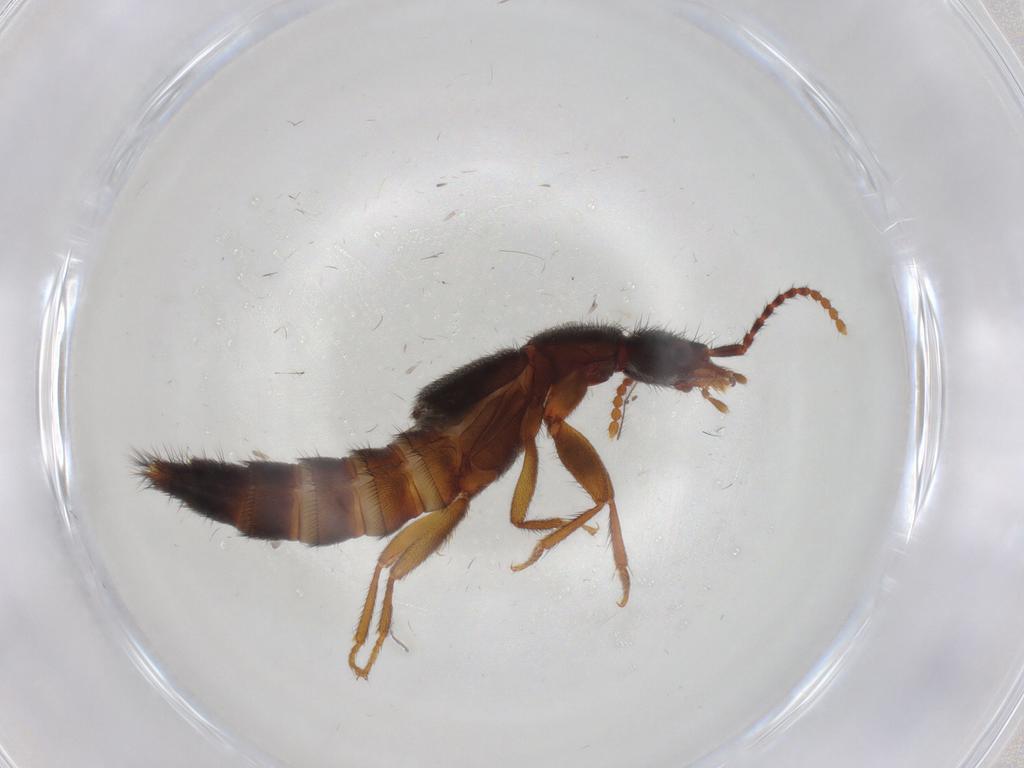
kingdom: Animalia
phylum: Arthropoda
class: Insecta
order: Coleoptera
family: Staphylinidae
